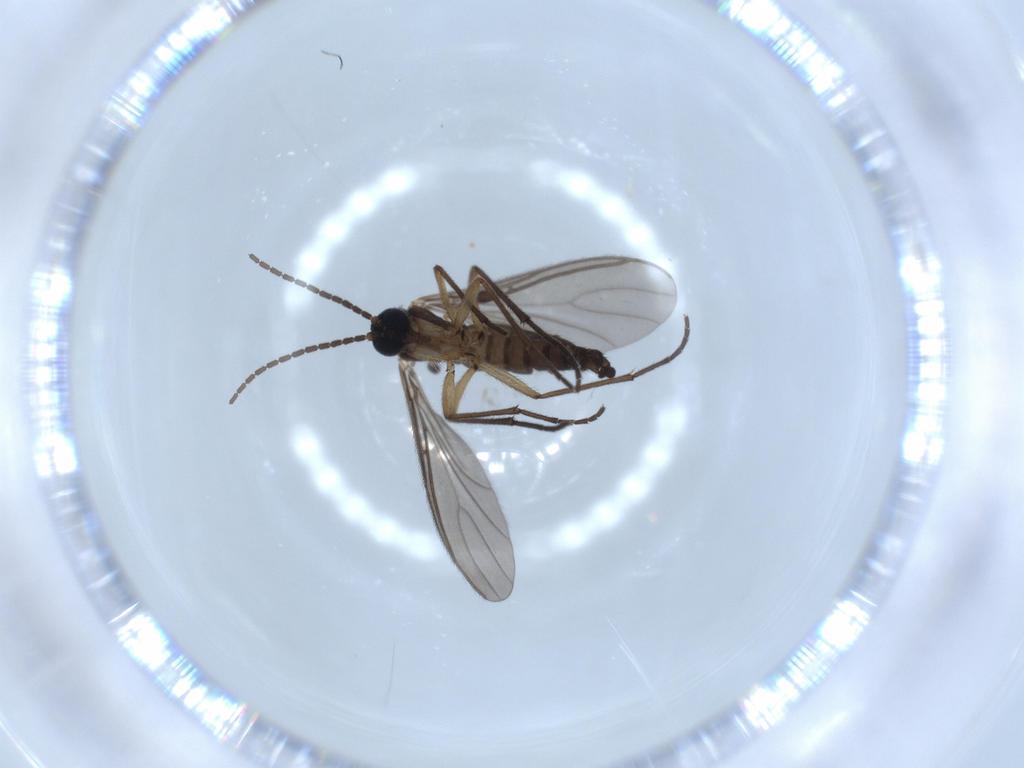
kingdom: Animalia
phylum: Arthropoda
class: Insecta
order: Diptera
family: Sciaridae
